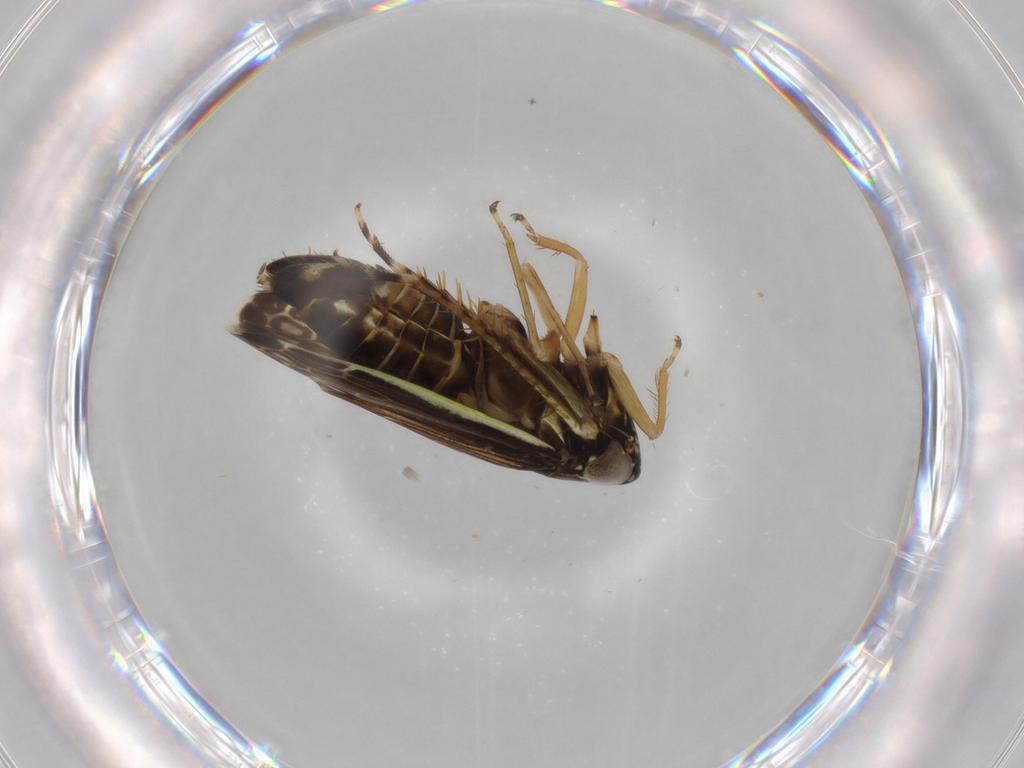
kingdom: Animalia
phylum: Arthropoda
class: Insecta
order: Hemiptera
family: Cicadellidae
